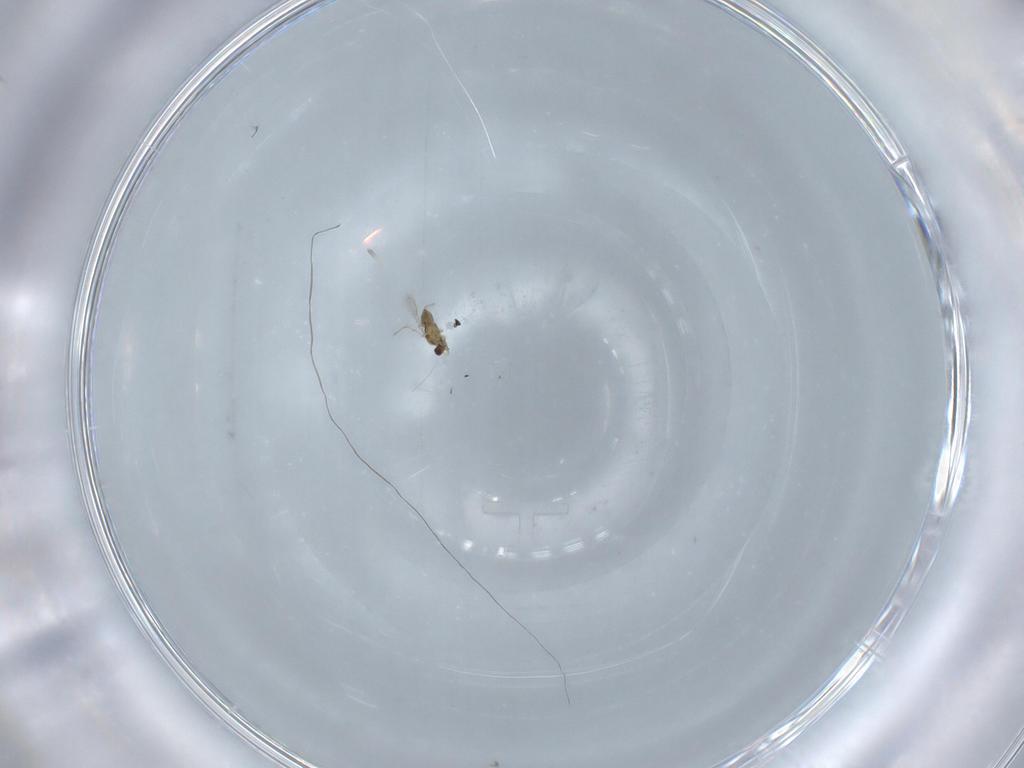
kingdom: Animalia
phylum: Arthropoda
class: Insecta
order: Hymenoptera
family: Mymaridae
